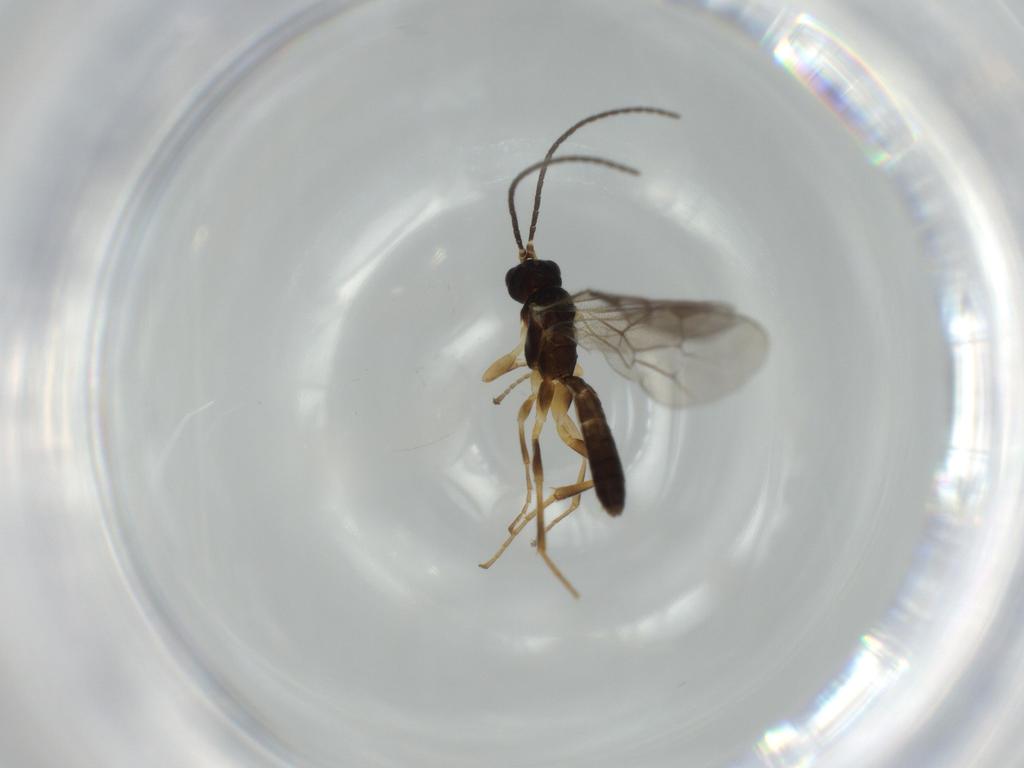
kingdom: Animalia
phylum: Arthropoda
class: Insecta
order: Hymenoptera
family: Ichneumonidae
